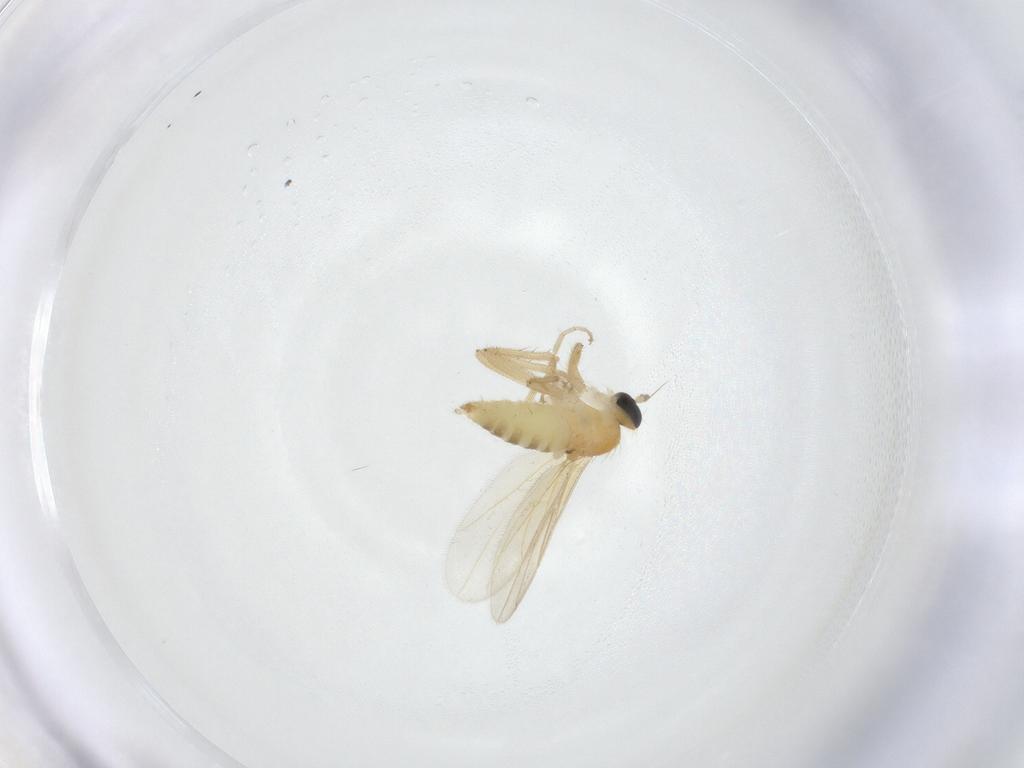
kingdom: Animalia
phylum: Arthropoda
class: Insecta
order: Diptera
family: Hybotidae
